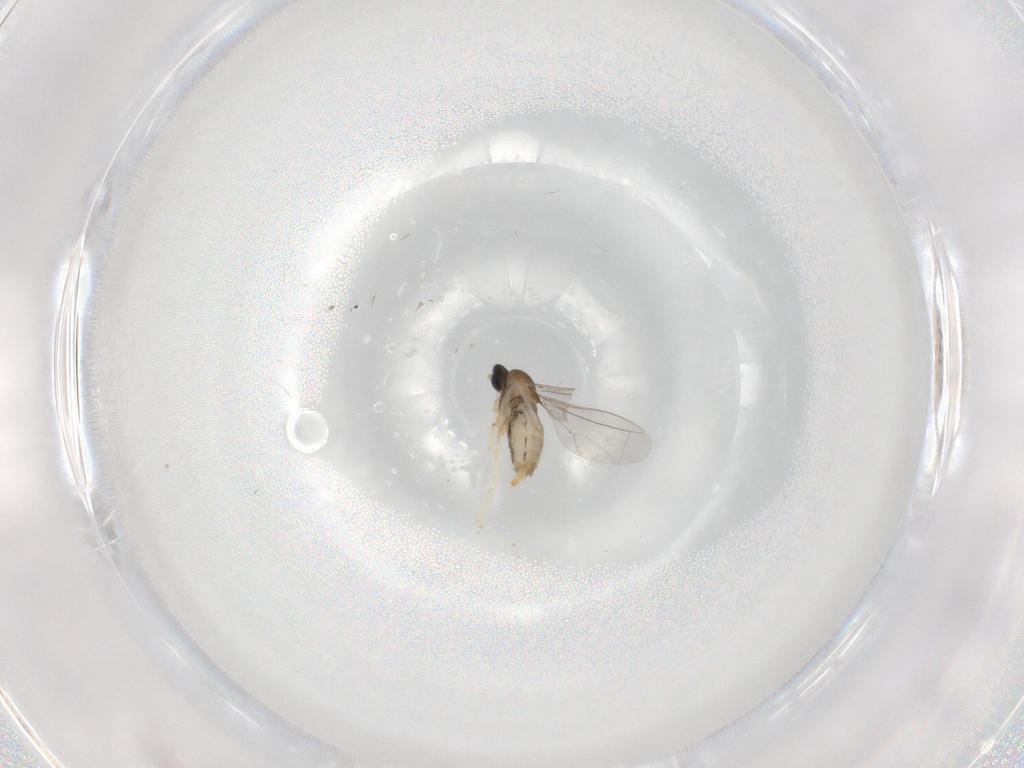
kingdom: Animalia
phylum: Arthropoda
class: Insecta
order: Diptera
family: Cecidomyiidae
